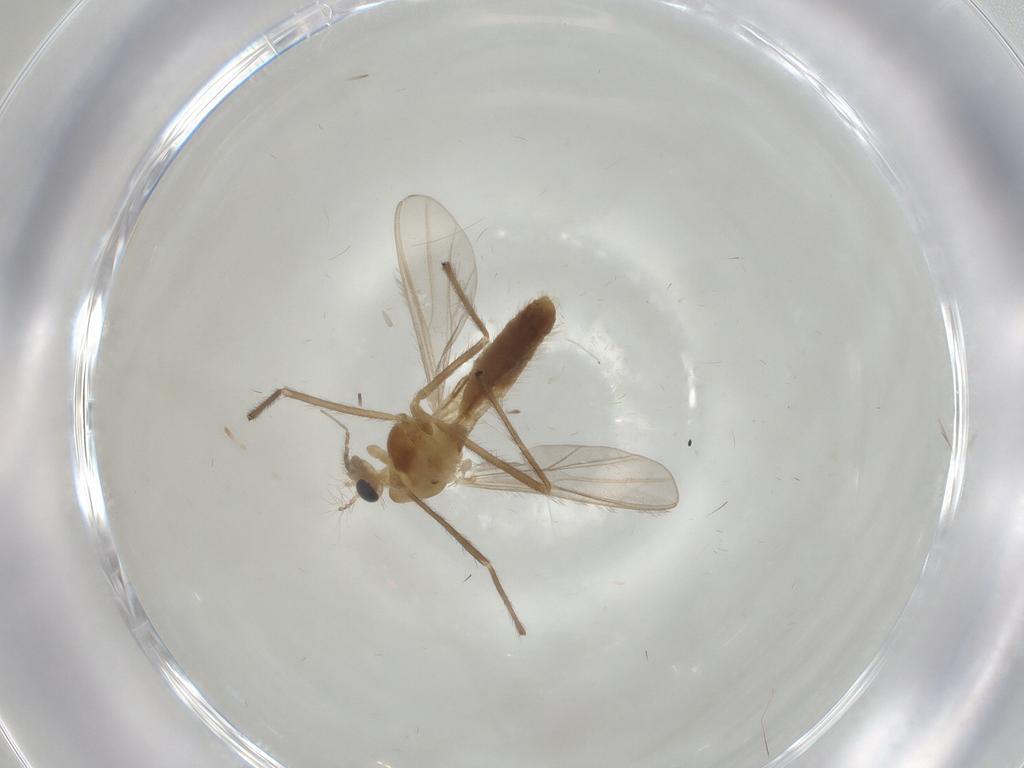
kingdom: Animalia
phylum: Arthropoda
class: Insecta
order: Diptera
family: Chironomidae
